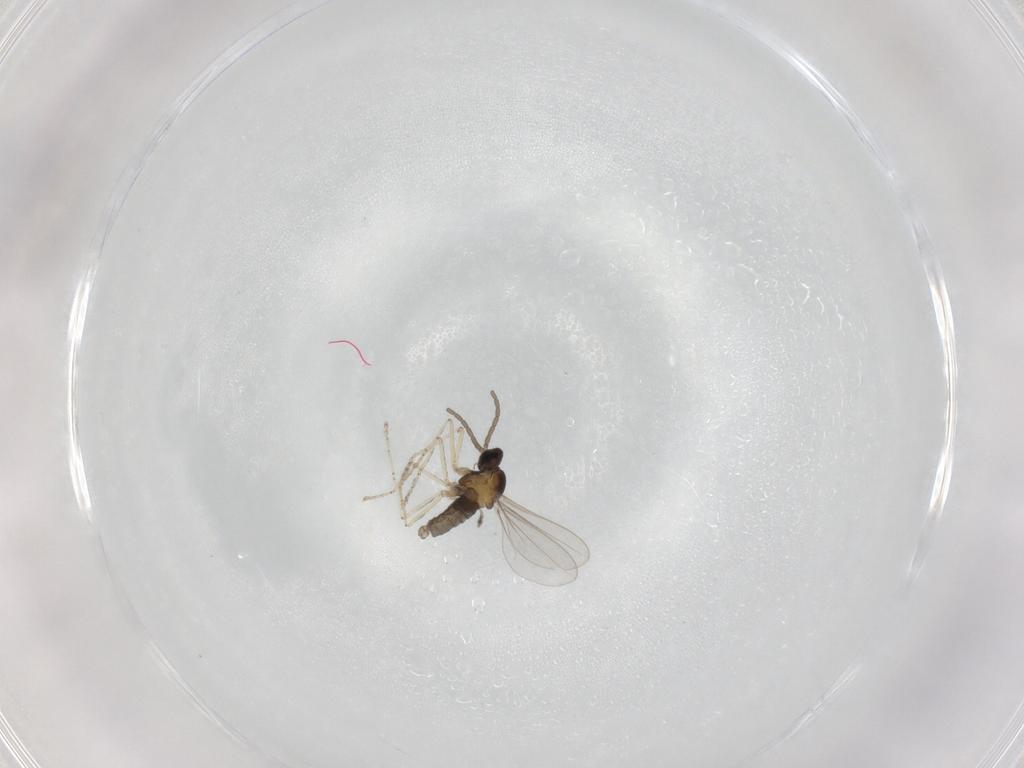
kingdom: Animalia
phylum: Arthropoda
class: Insecta
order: Diptera
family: Cecidomyiidae
